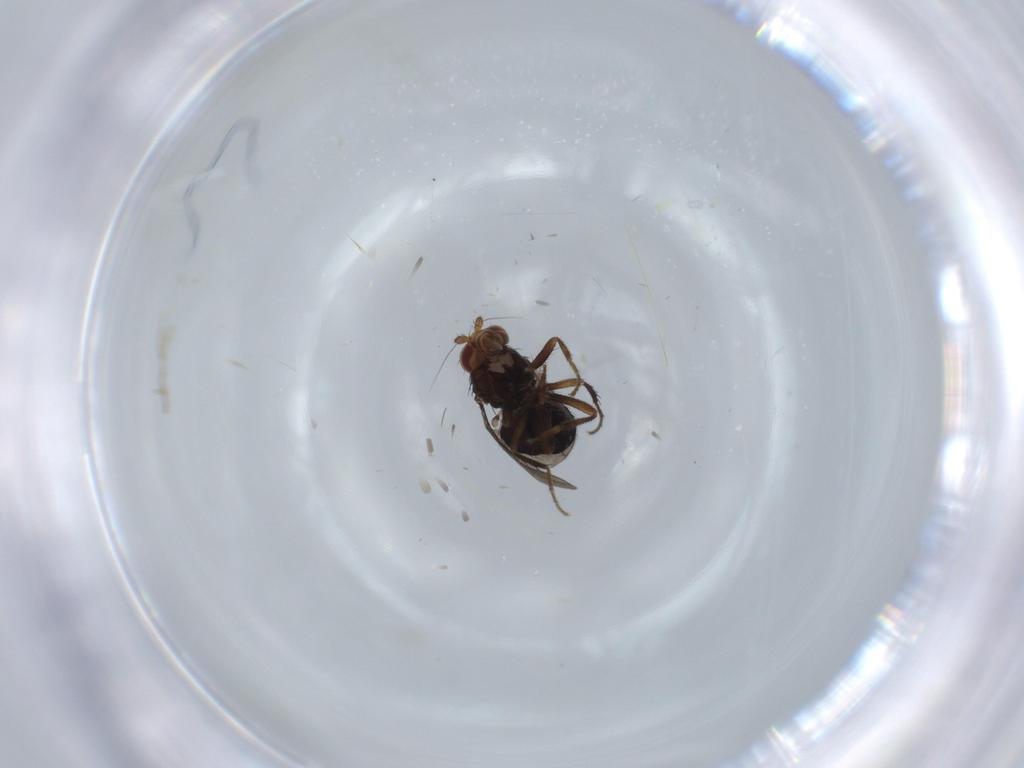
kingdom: Animalia
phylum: Arthropoda
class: Insecta
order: Diptera
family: Sphaeroceridae
